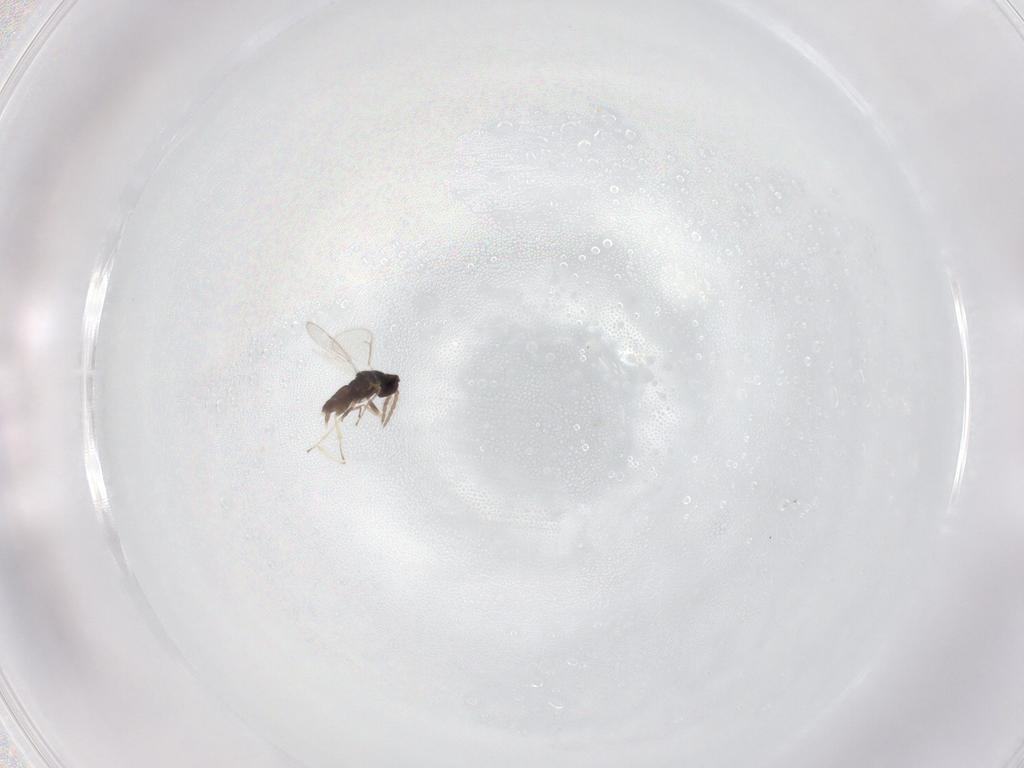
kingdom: Animalia
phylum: Arthropoda
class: Insecta
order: Hymenoptera
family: Eulophidae
